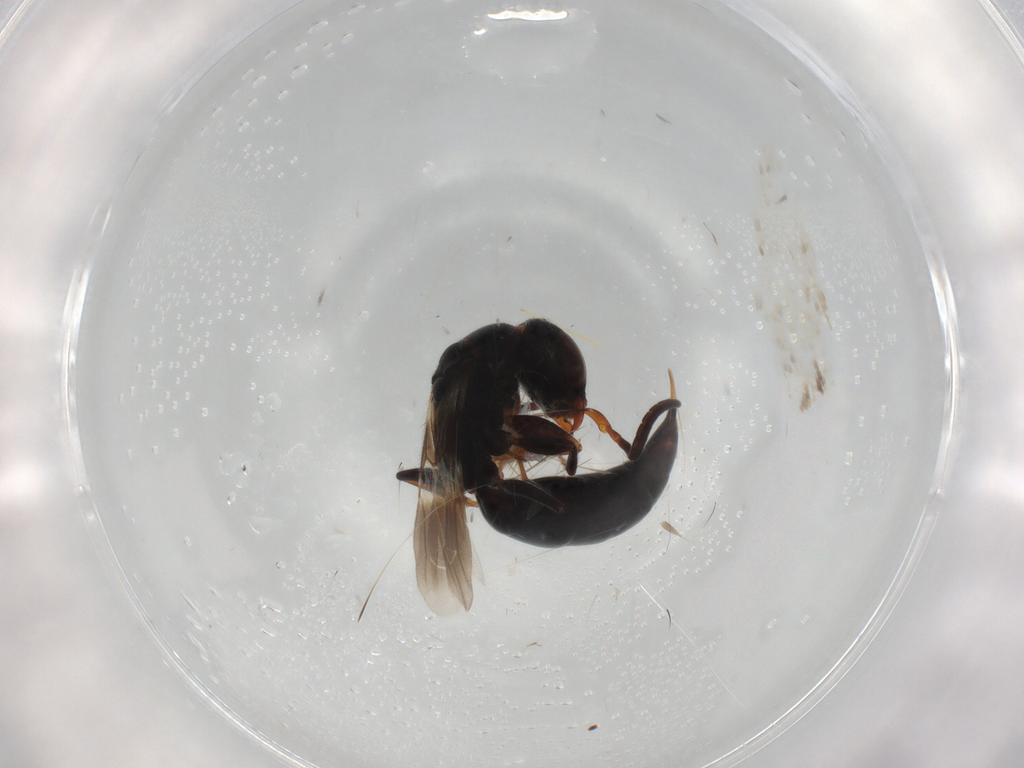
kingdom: Animalia
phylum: Arthropoda
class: Insecta
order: Hymenoptera
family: Bethylidae
